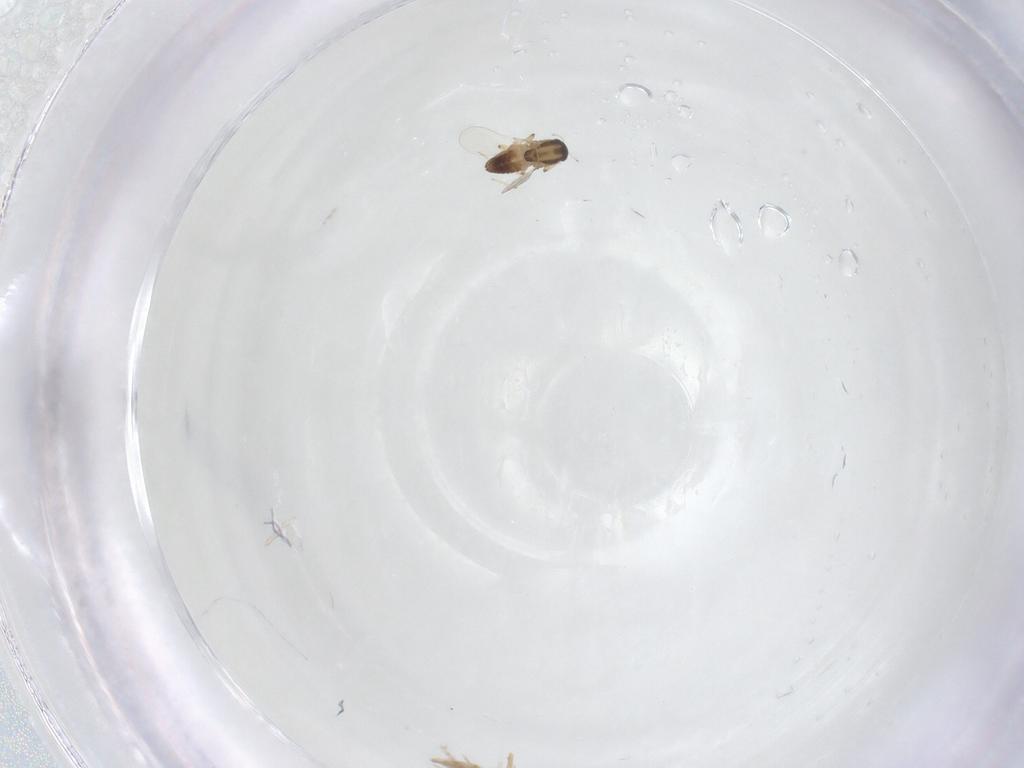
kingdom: Animalia
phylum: Arthropoda
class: Insecta
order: Diptera
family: Chironomidae
